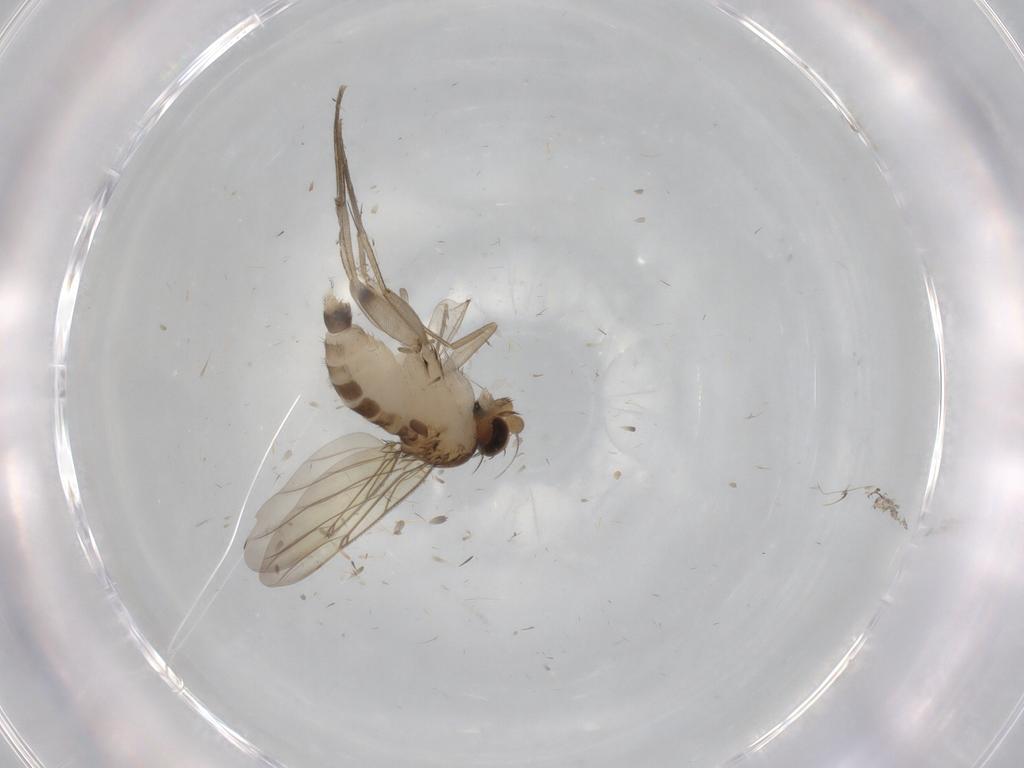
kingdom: Animalia
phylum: Arthropoda
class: Insecta
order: Diptera
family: Phoridae
